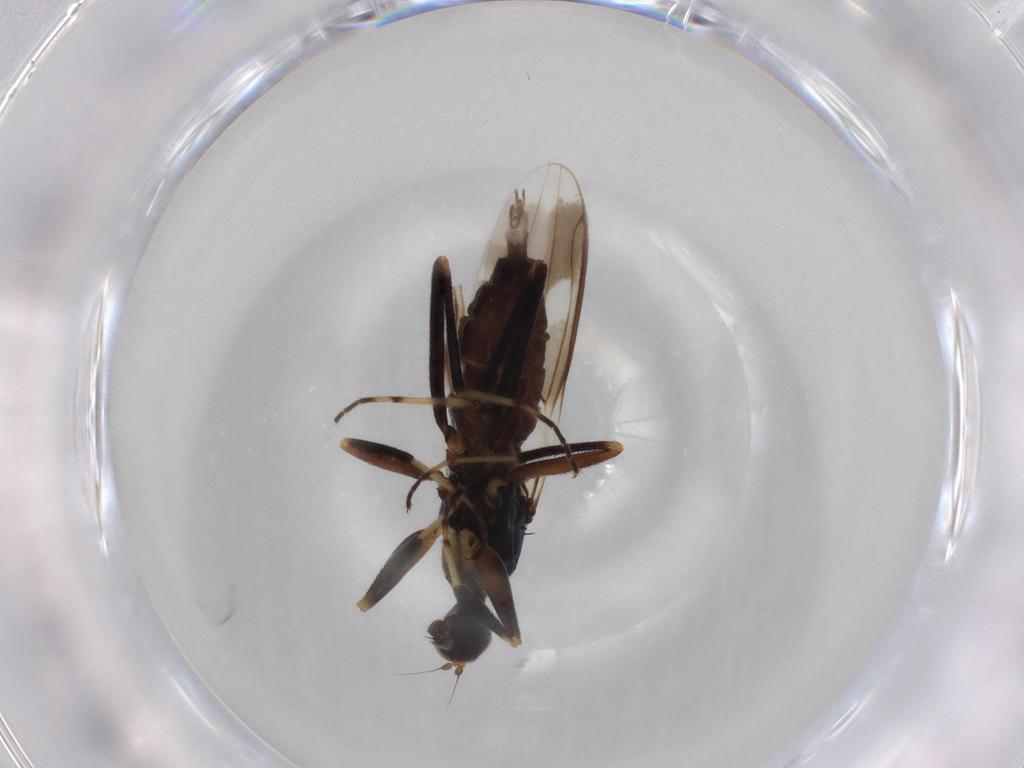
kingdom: Animalia
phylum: Arthropoda
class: Insecta
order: Diptera
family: Hybotidae
